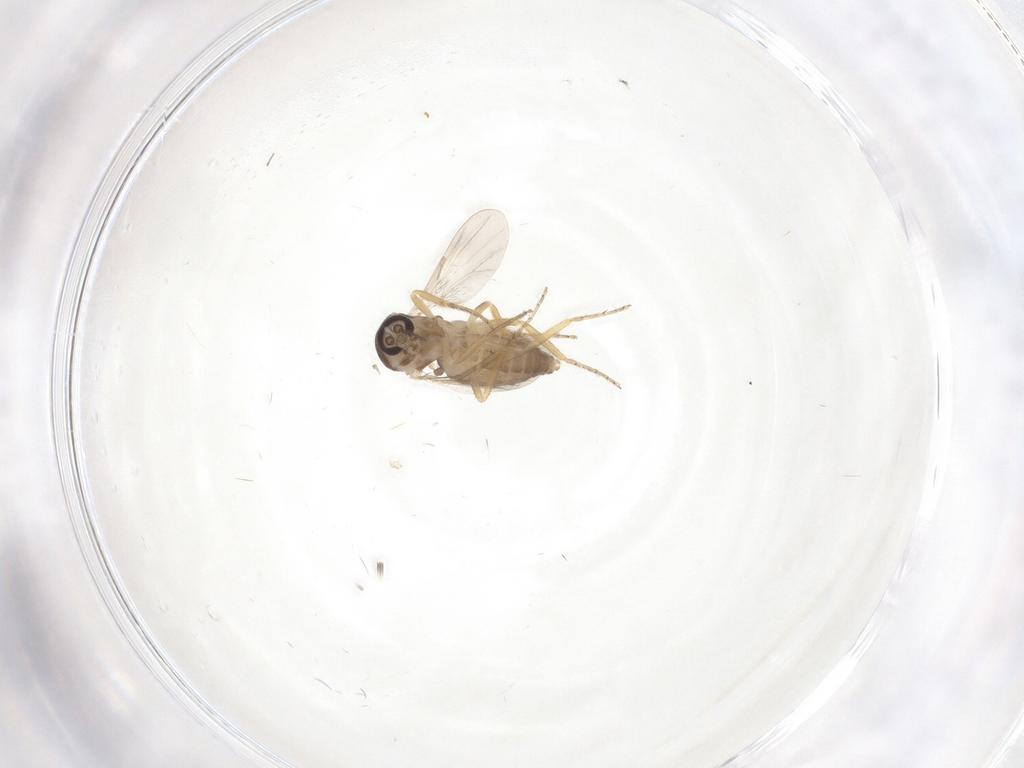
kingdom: Animalia
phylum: Arthropoda
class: Insecta
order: Diptera
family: Ceratopogonidae
